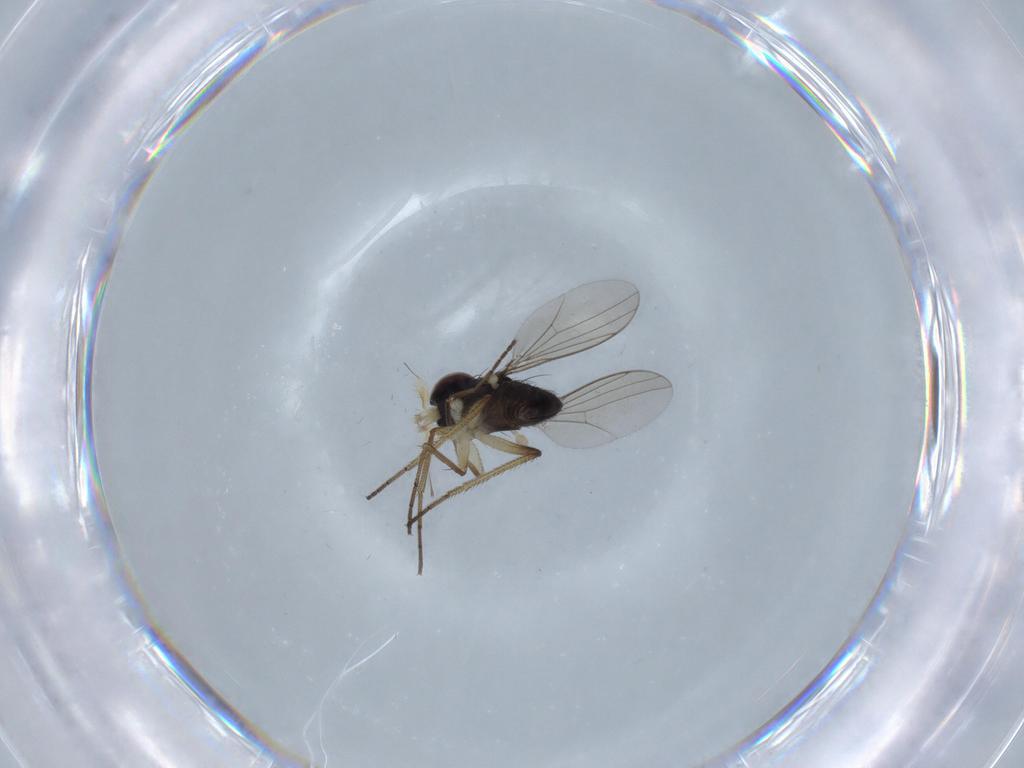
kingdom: Animalia
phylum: Arthropoda
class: Insecta
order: Diptera
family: Dolichopodidae
